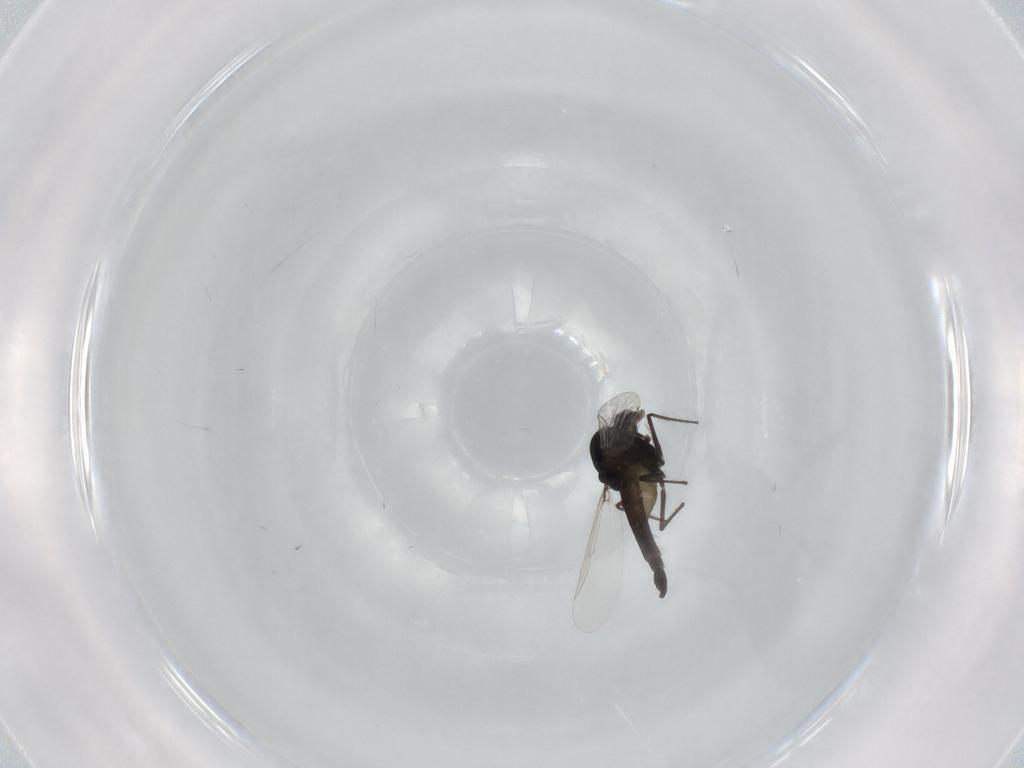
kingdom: Animalia
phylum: Arthropoda
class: Insecta
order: Diptera
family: Chironomidae
